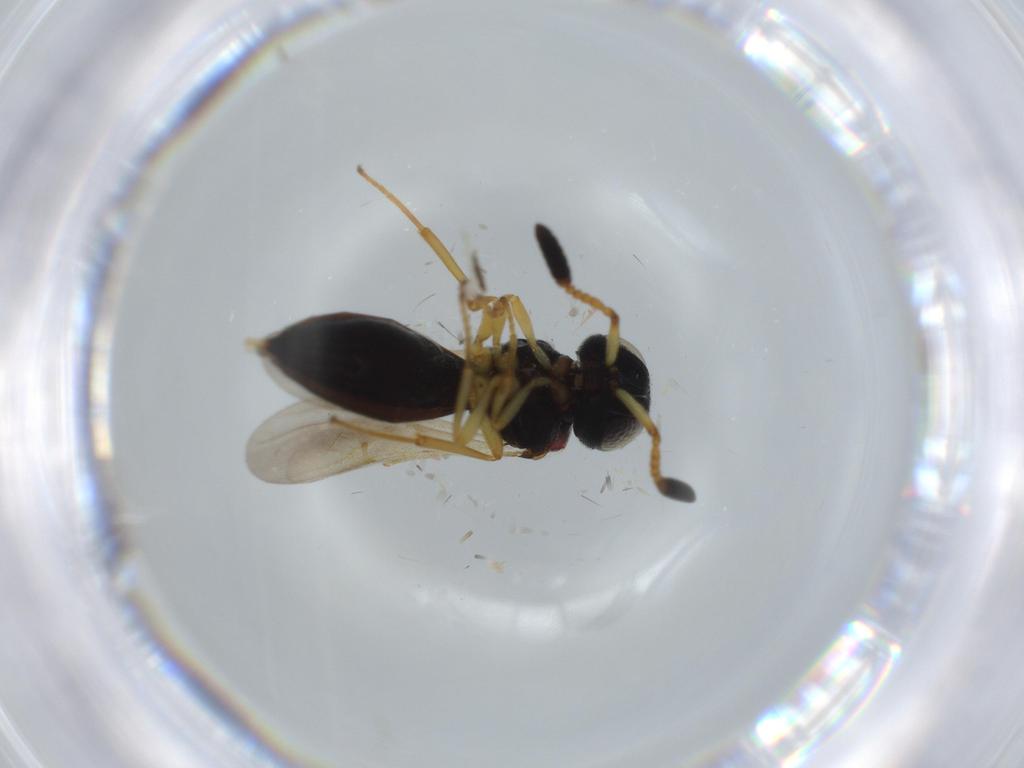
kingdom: Animalia
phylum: Arthropoda
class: Insecta
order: Hymenoptera
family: Mymaridae
